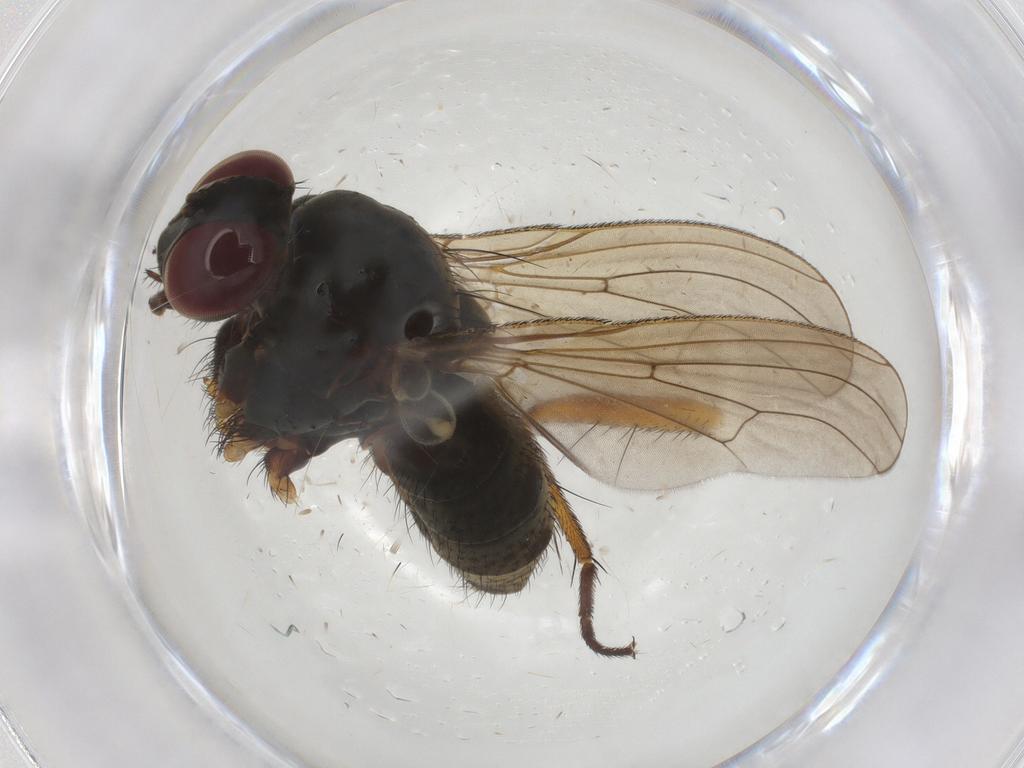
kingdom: Animalia
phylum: Arthropoda
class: Insecta
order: Diptera
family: Muscidae
